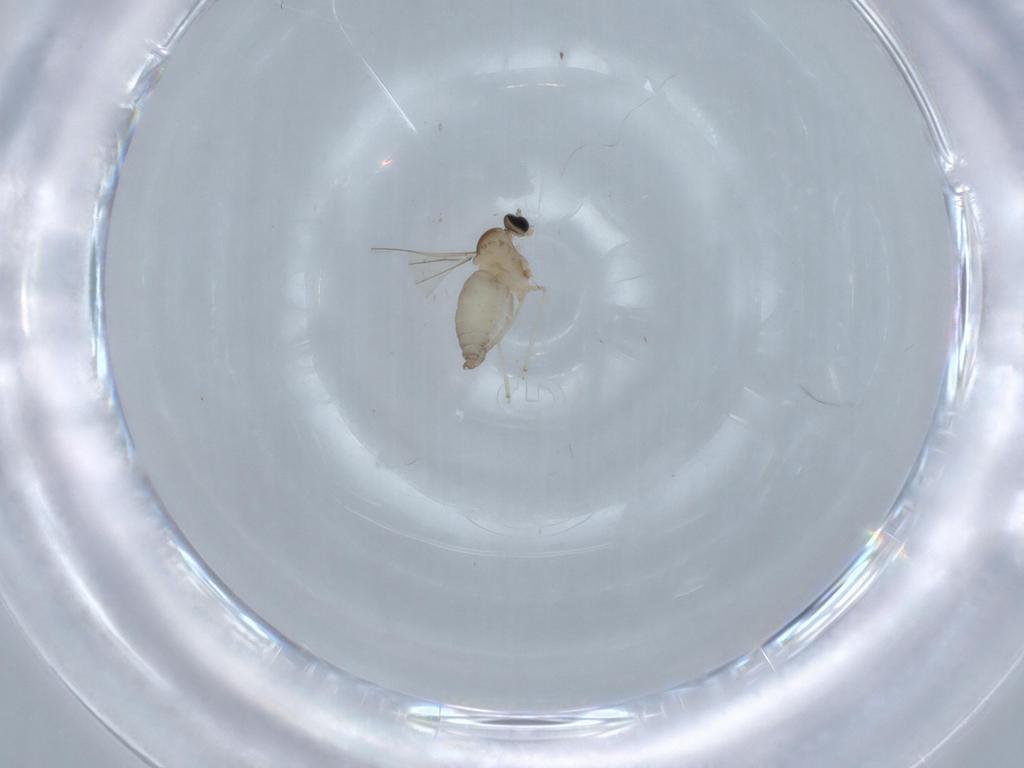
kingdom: Animalia
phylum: Arthropoda
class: Insecta
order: Diptera
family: Cecidomyiidae
